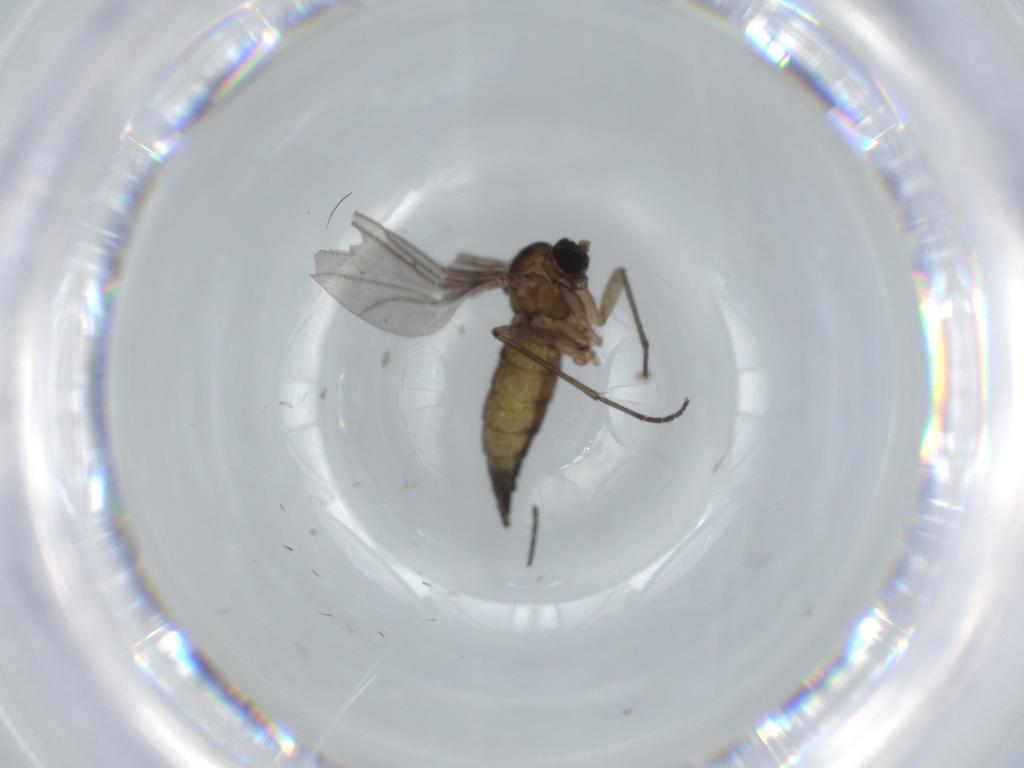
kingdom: Animalia
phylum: Arthropoda
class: Insecta
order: Diptera
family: Sciaridae
